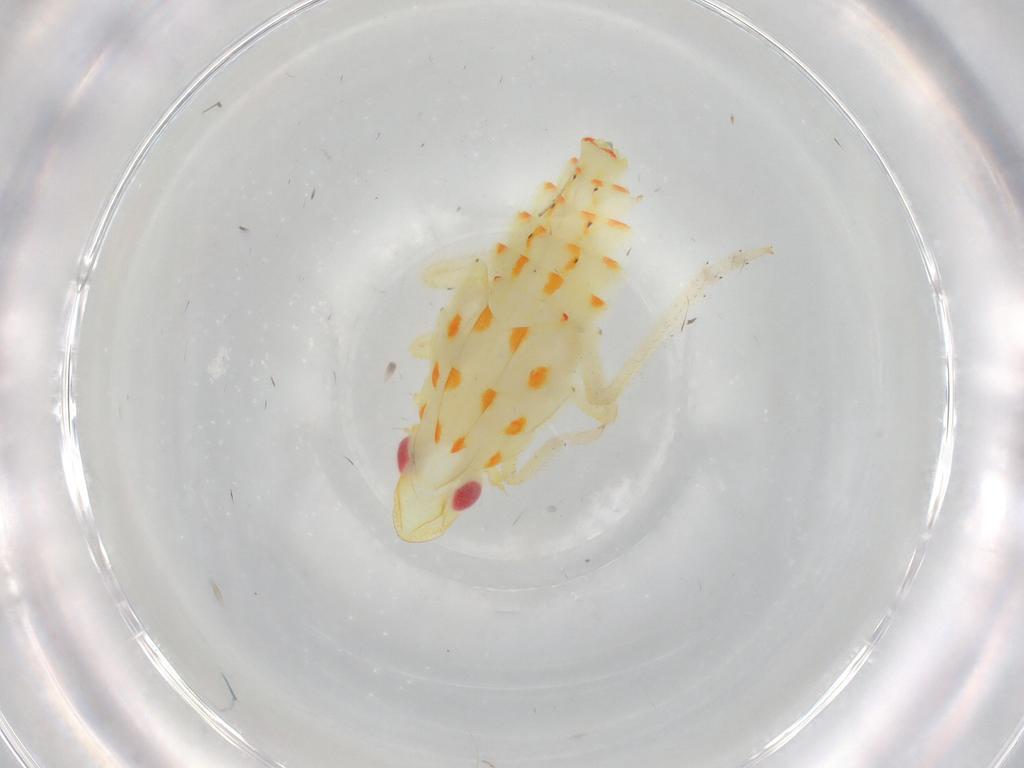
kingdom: Animalia
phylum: Arthropoda
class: Insecta
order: Hemiptera
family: Tropiduchidae
